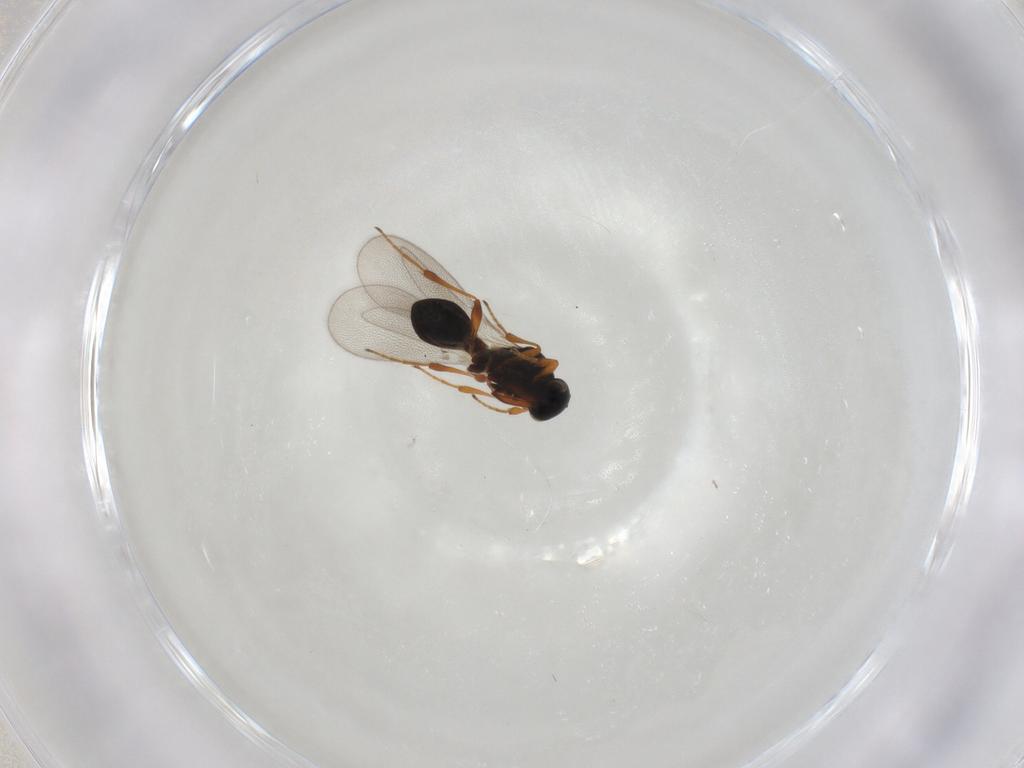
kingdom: Animalia
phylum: Arthropoda
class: Insecta
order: Hymenoptera
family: Platygastridae
